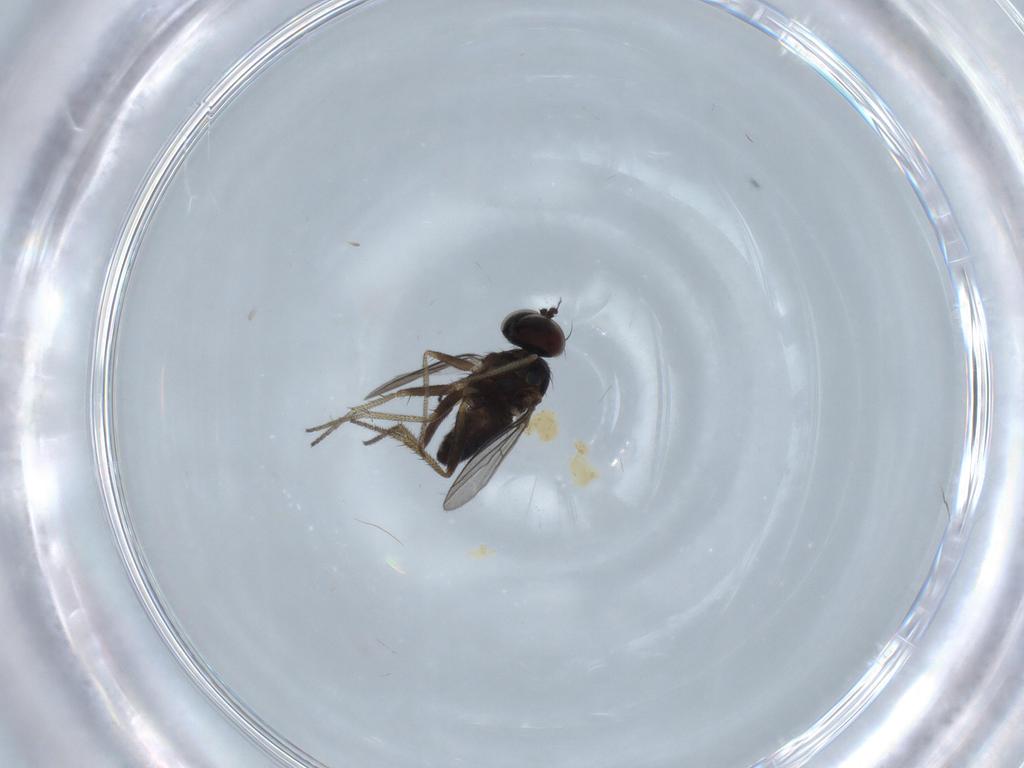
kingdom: Animalia
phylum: Arthropoda
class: Insecta
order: Diptera
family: Dolichopodidae
